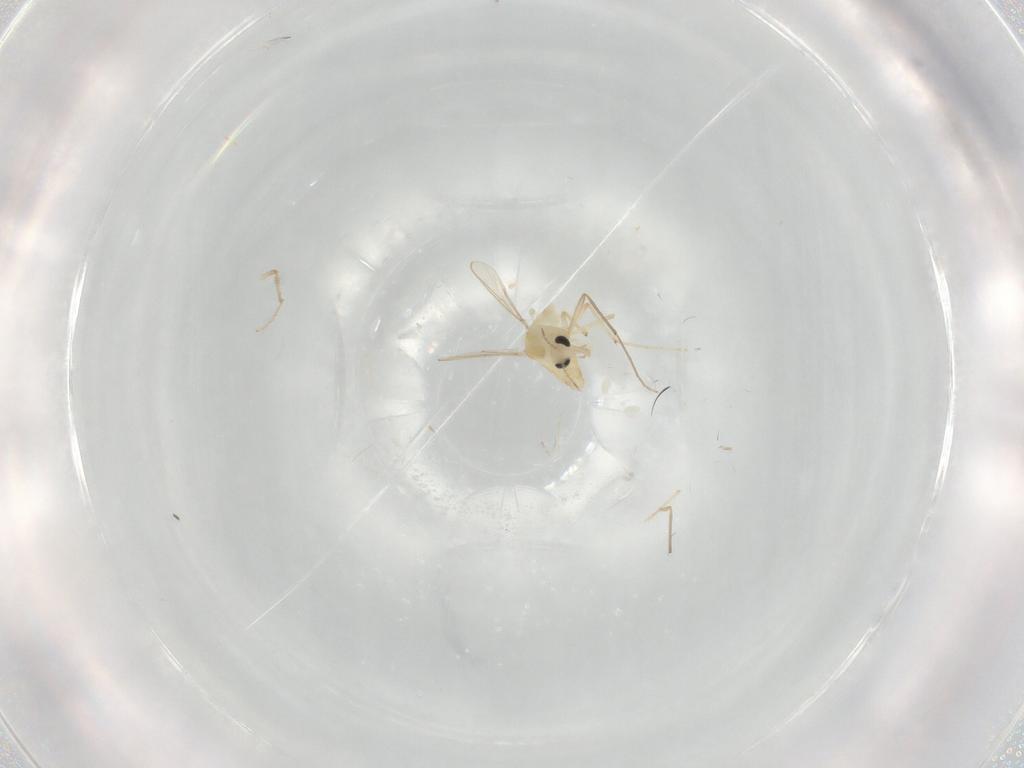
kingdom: Animalia
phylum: Arthropoda
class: Insecta
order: Diptera
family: Chironomidae
